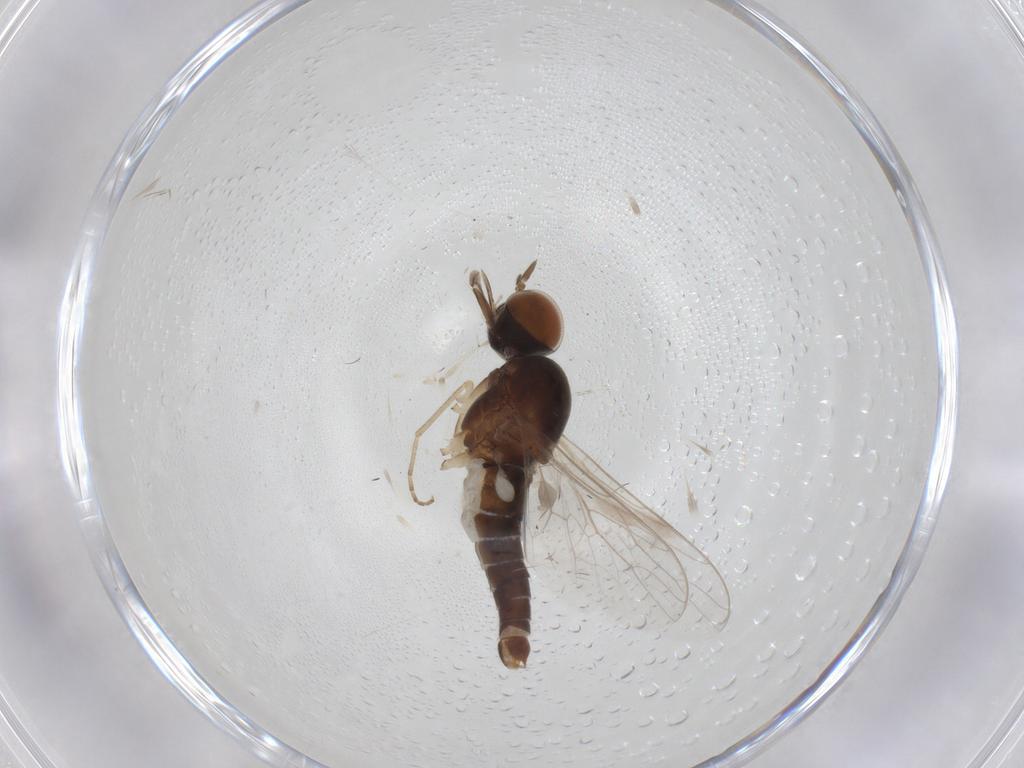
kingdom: Animalia
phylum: Arthropoda
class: Insecta
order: Diptera
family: Scenopinidae
